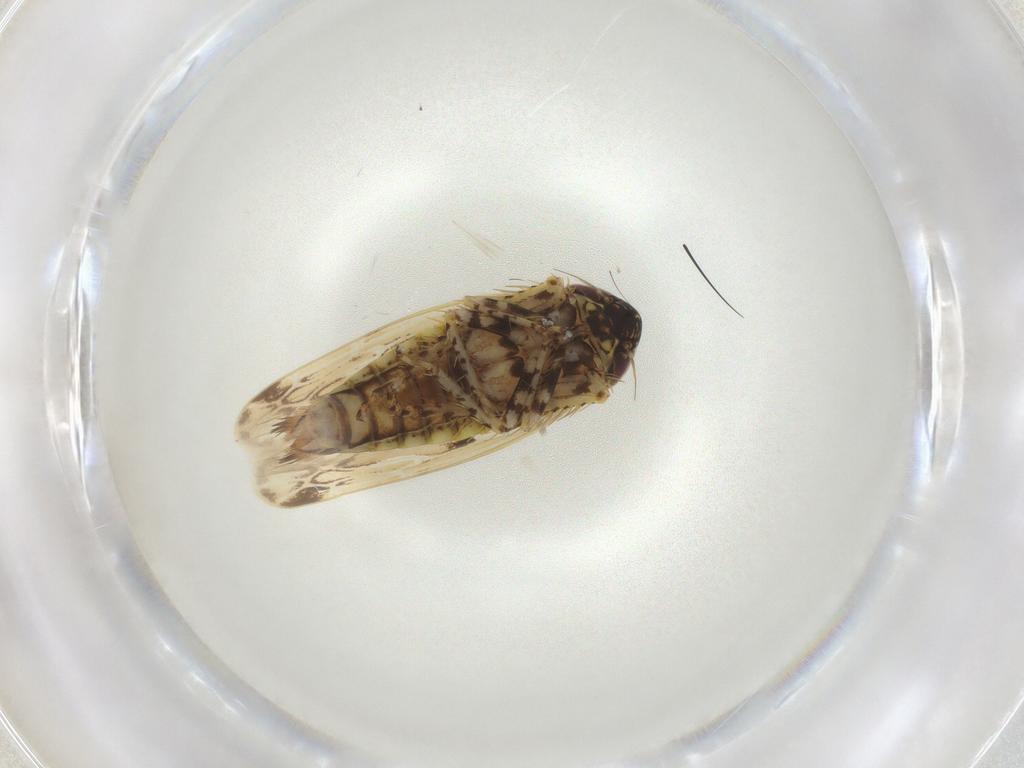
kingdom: Animalia
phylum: Arthropoda
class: Insecta
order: Hemiptera
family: Cicadellidae
